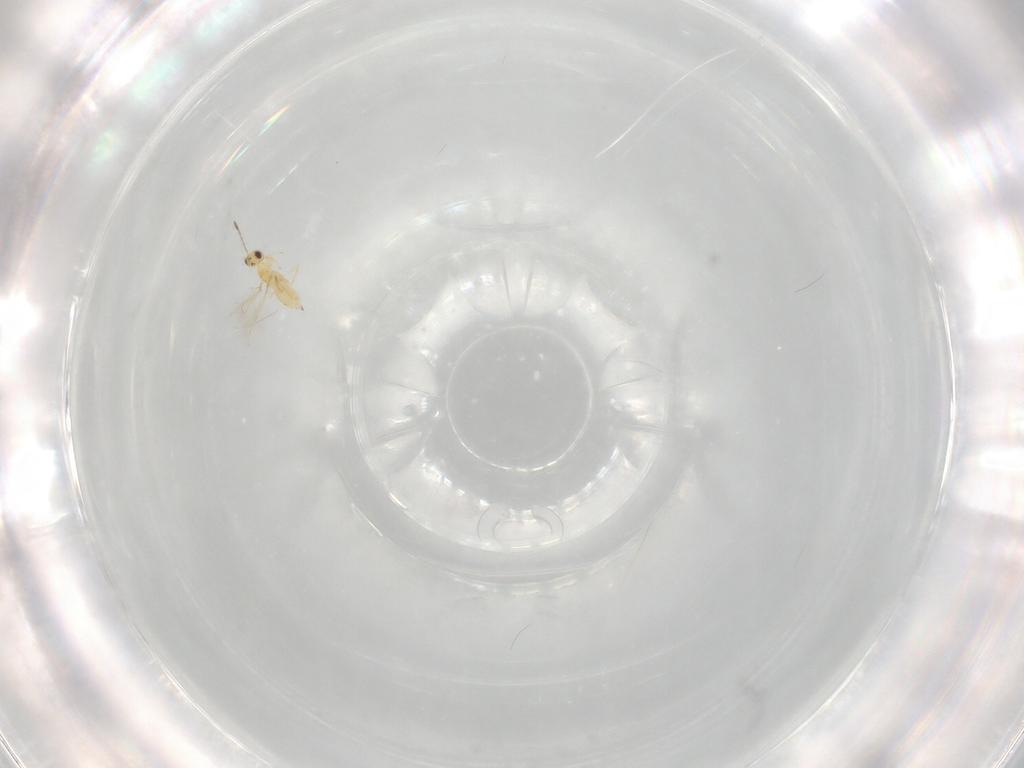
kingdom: Animalia
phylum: Arthropoda
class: Insecta
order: Hymenoptera
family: Mymaridae
